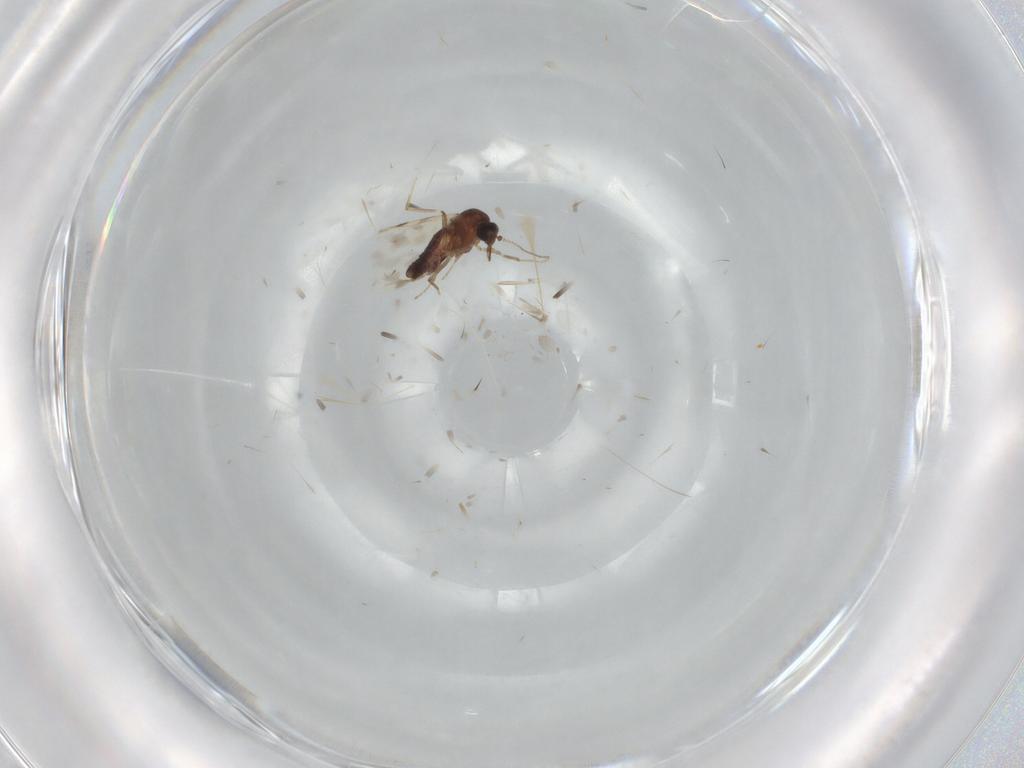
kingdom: Animalia
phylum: Arthropoda
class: Insecta
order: Diptera
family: Ceratopogonidae
